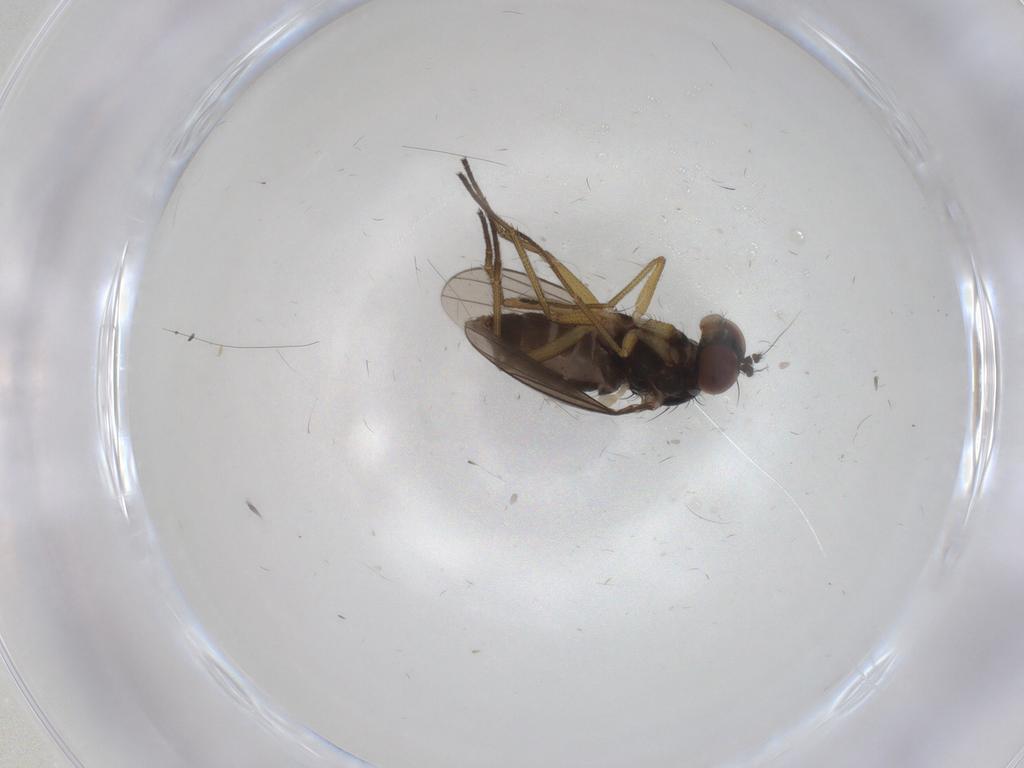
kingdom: Animalia
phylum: Arthropoda
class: Insecta
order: Diptera
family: Dolichopodidae
